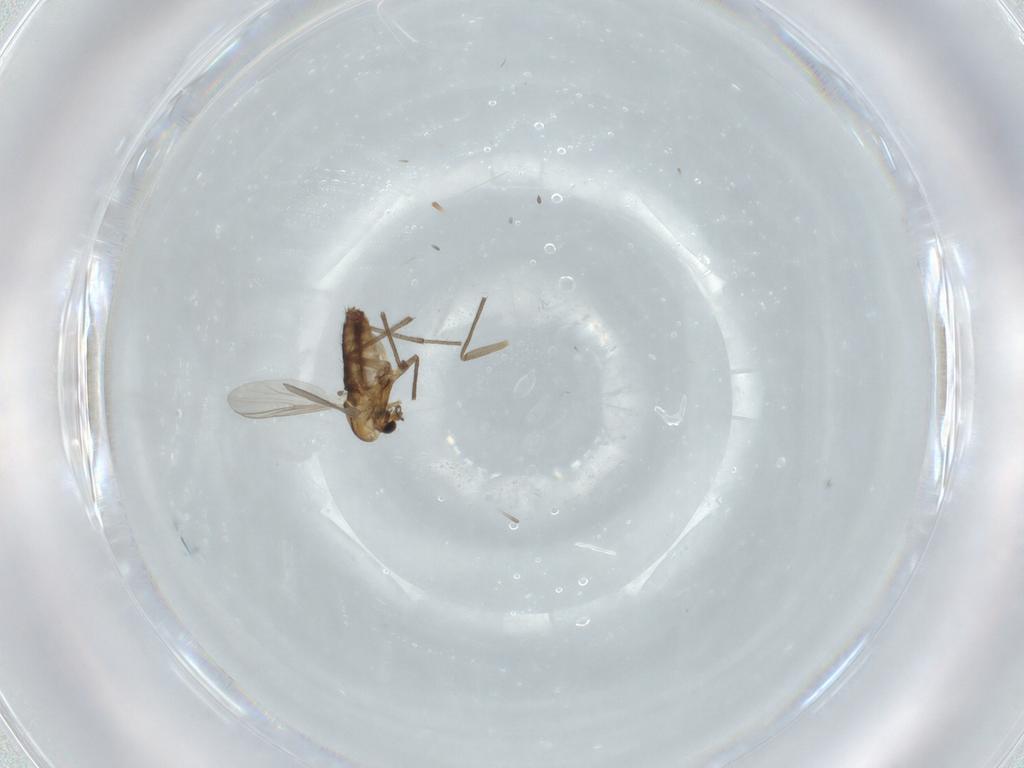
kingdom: Animalia
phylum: Arthropoda
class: Insecta
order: Diptera
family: Chironomidae
